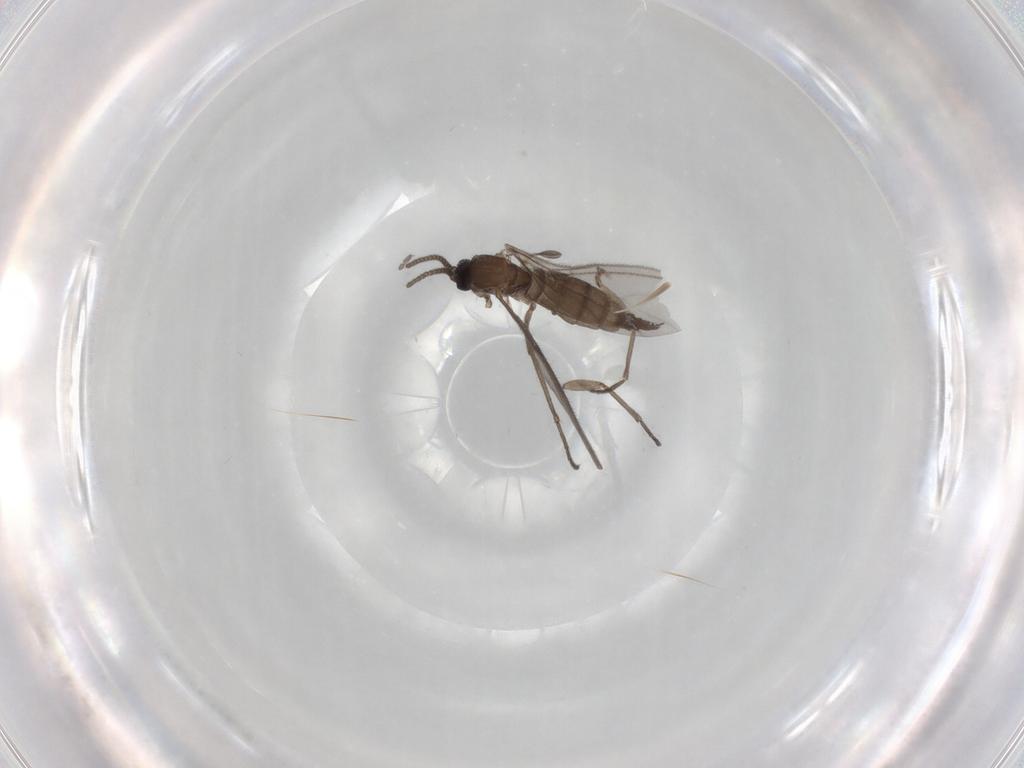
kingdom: Animalia
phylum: Arthropoda
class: Insecta
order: Diptera
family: Sciaridae
